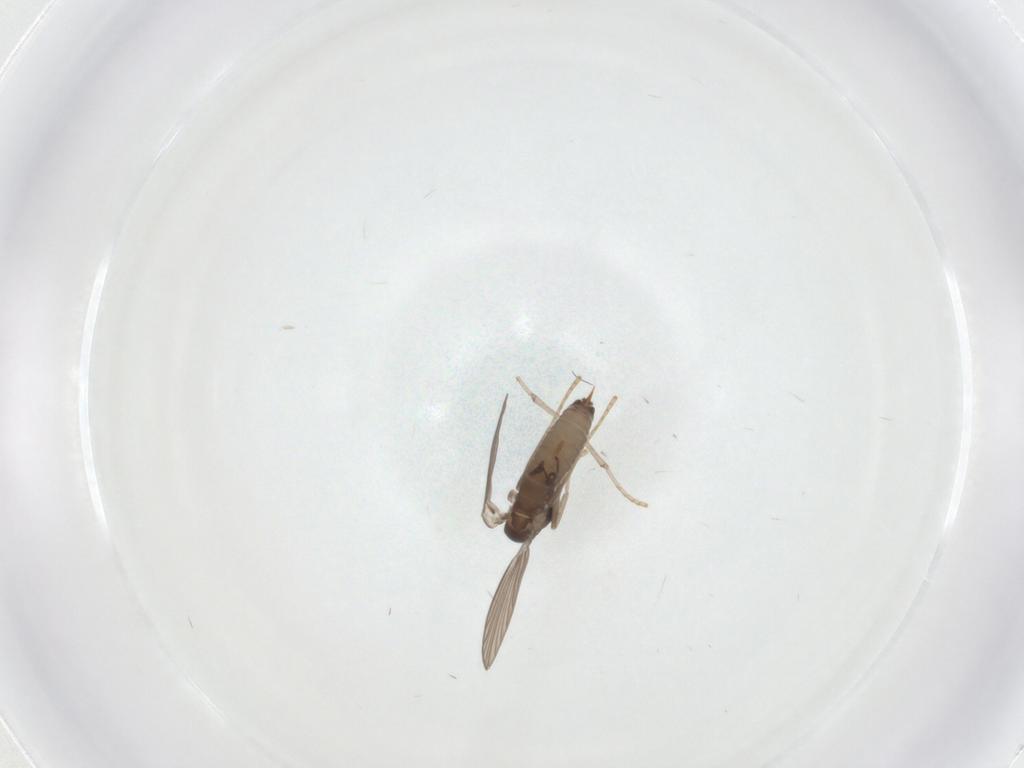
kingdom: Animalia
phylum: Arthropoda
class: Insecta
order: Diptera
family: Psychodidae
